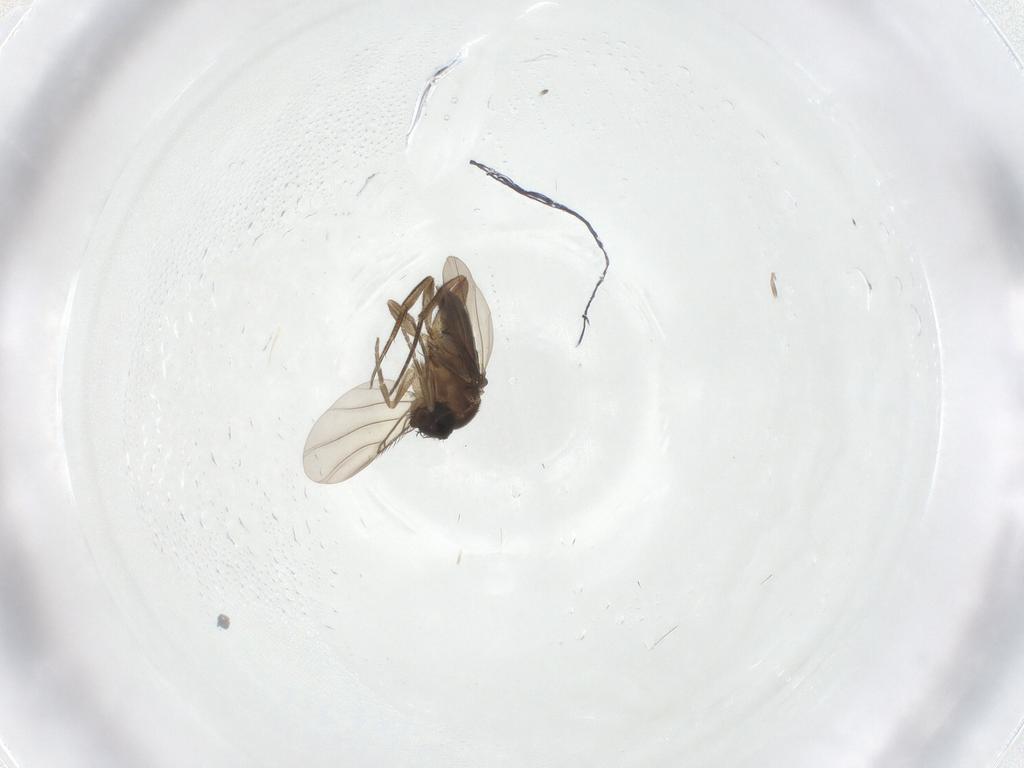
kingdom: Animalia
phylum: Arthropoda
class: Insecta
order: Diptera
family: Phoridae
